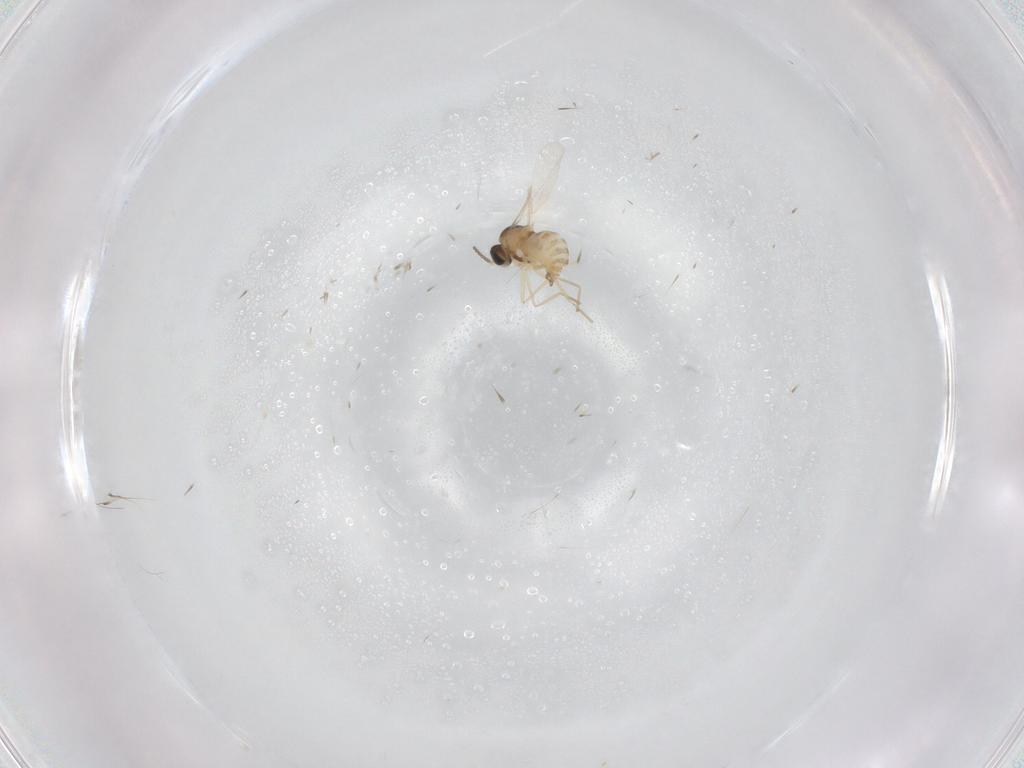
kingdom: Animalia
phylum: Arthropoda
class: Insecta
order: Diptera
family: Cecidomyiidae
